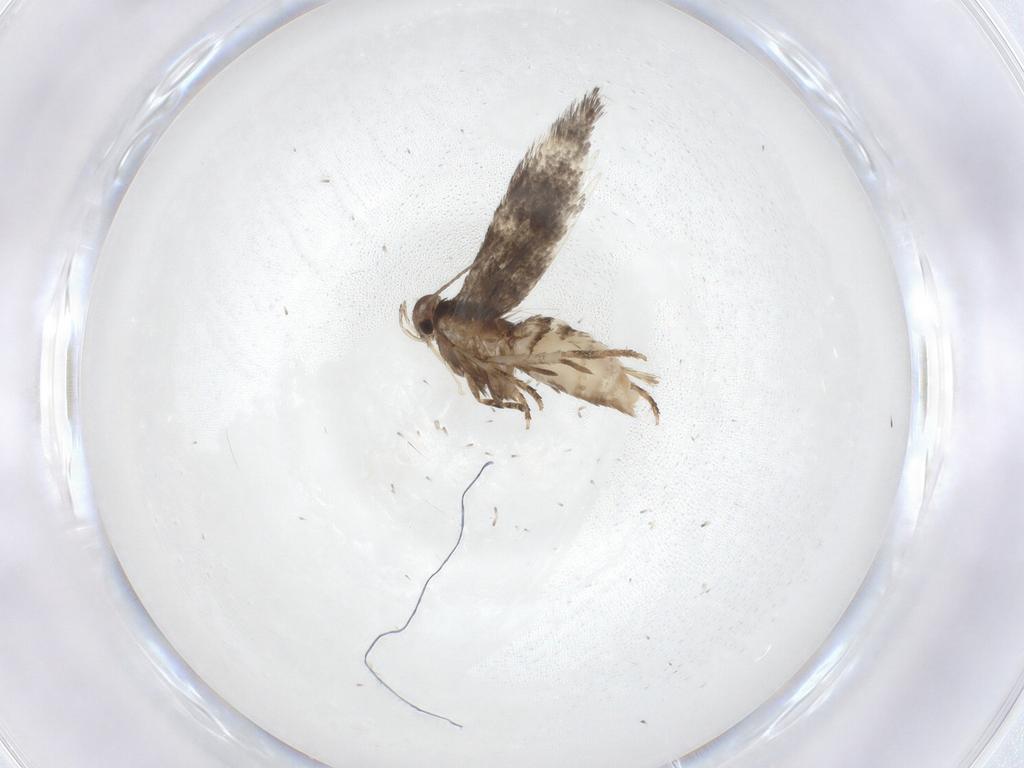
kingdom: Animalia
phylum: Arthropoda
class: Insecta
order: Lepidoptera
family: Elachistidae
